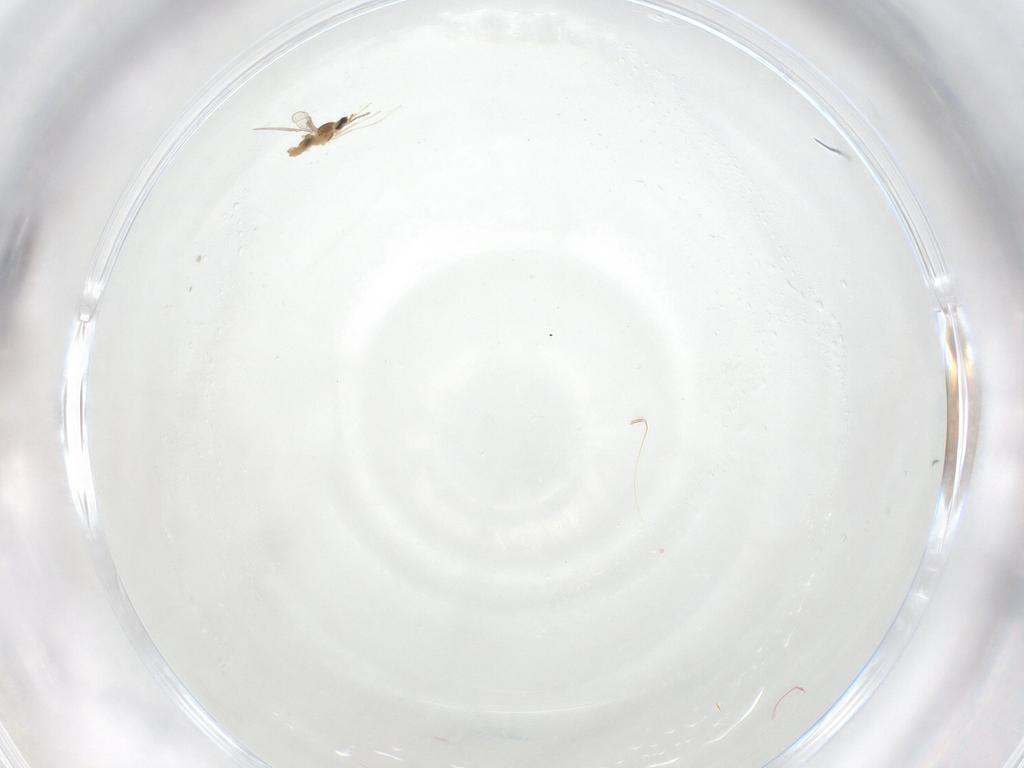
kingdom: Animalia
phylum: Arthropoda
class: Insecta
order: Diptera
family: Cecidomyiidae
